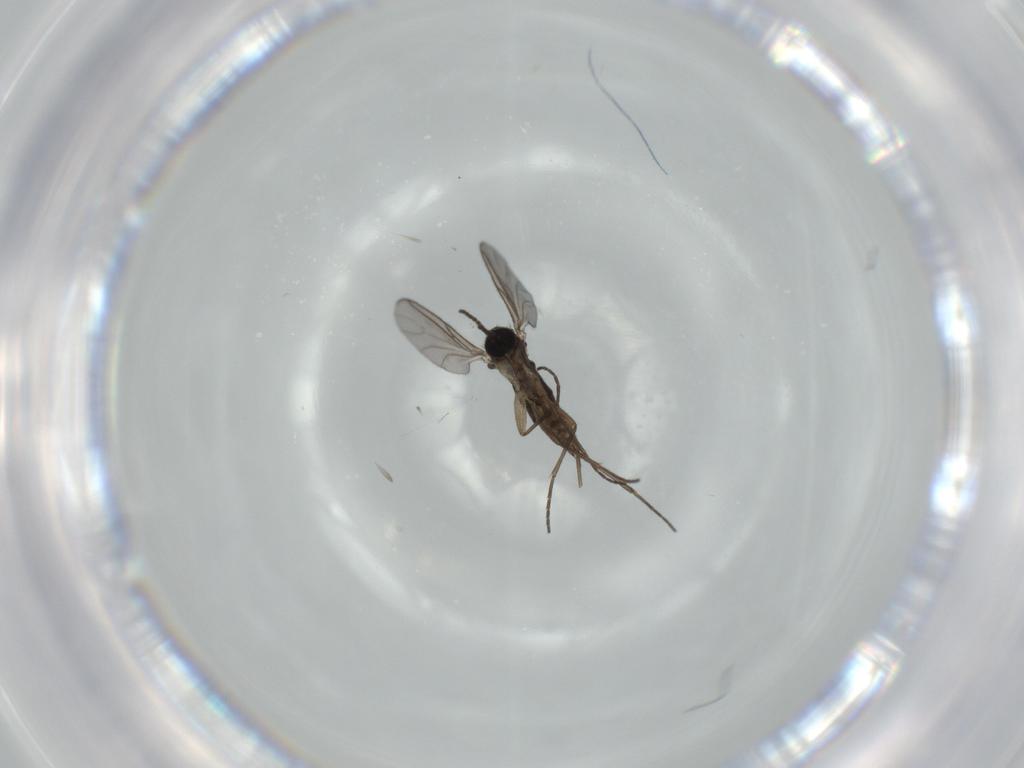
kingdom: Animalia
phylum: Arthropoda
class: Insecta
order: Diptera
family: Sciaridae
